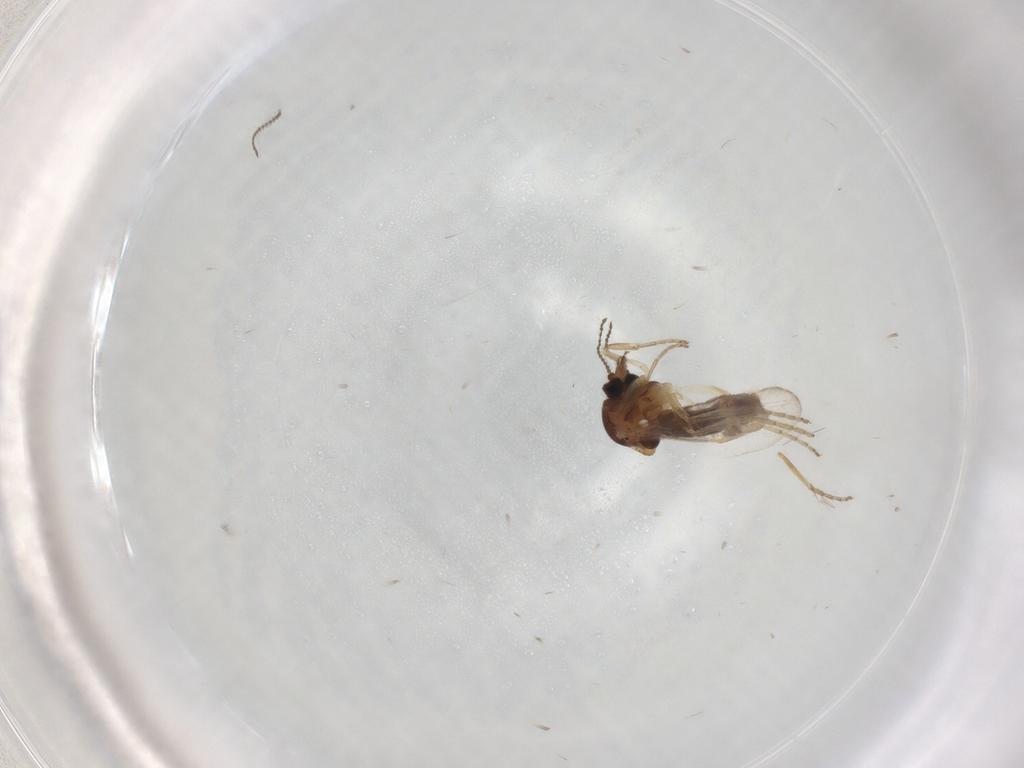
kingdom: Animalia
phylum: Arthropoda
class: Insecta
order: Diptera
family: Ceratopogonidae
